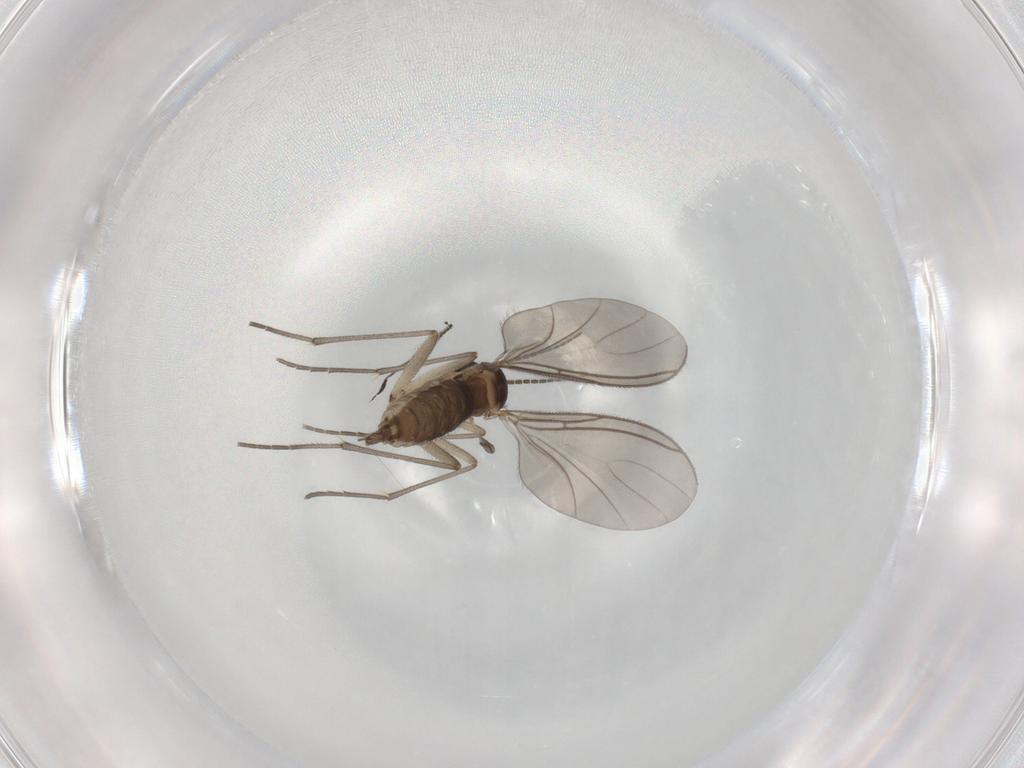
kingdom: Animalia
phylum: Arthropoda
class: Insecta
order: Diptera
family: Sciaridae
